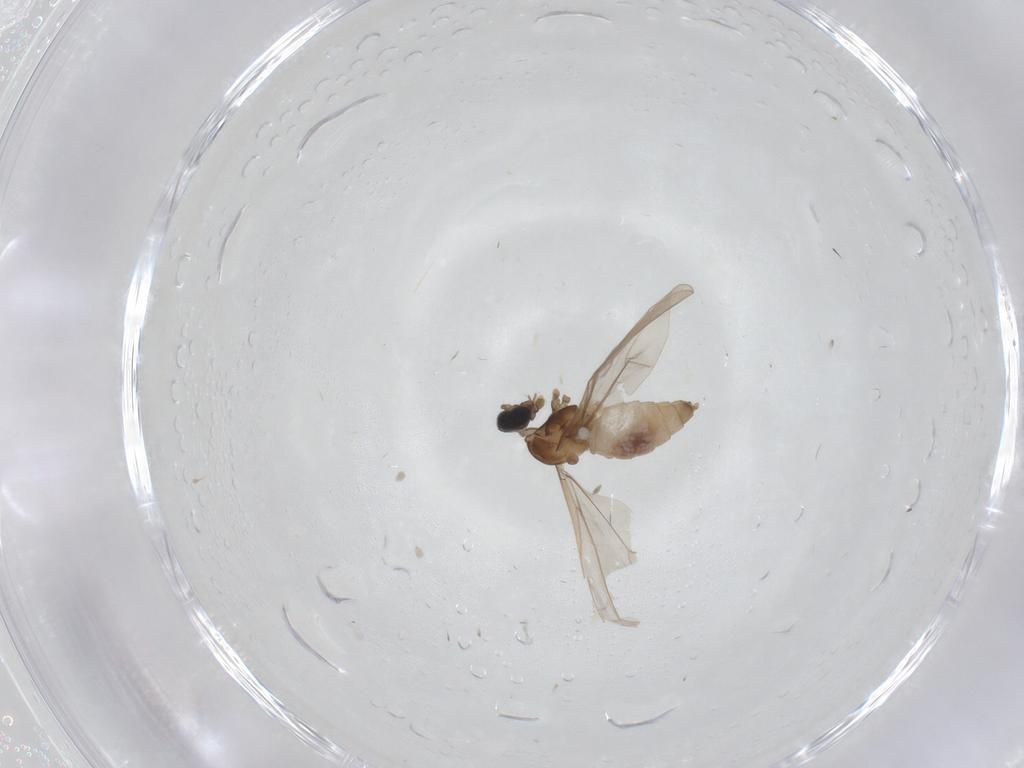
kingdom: Animalia
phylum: Arthropoda
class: Insecta
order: Diptera
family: Cecidomyiidae
